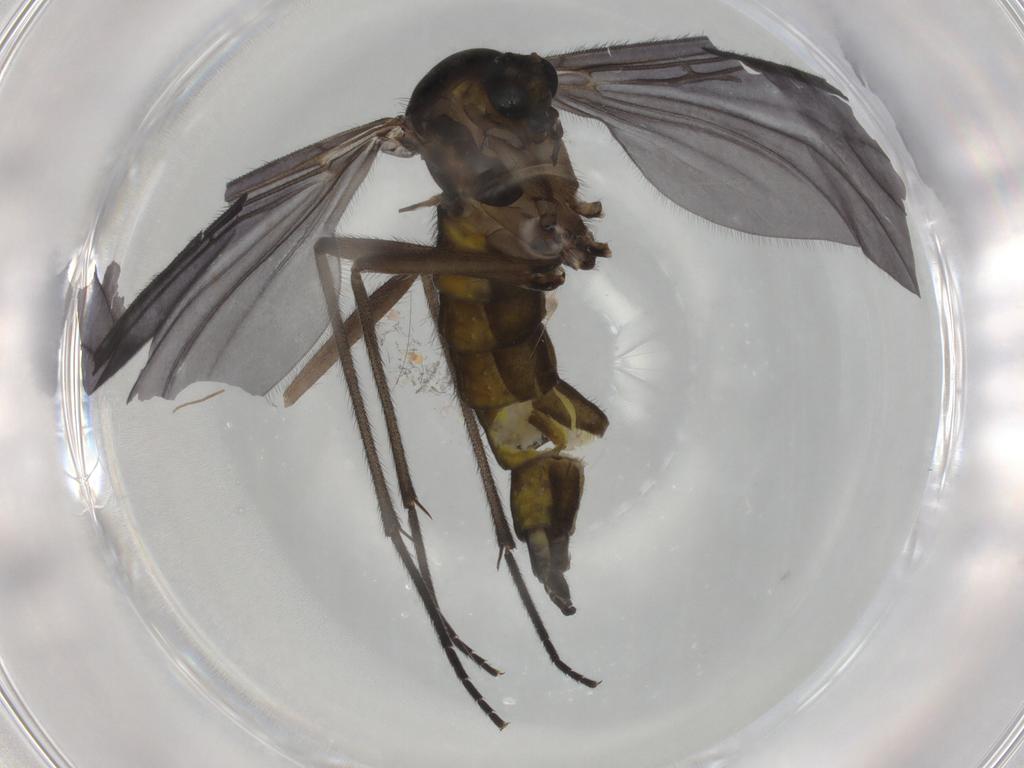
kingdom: Animalia
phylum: Arthropoda
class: Insecta
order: Diptera
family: Sciaridae
